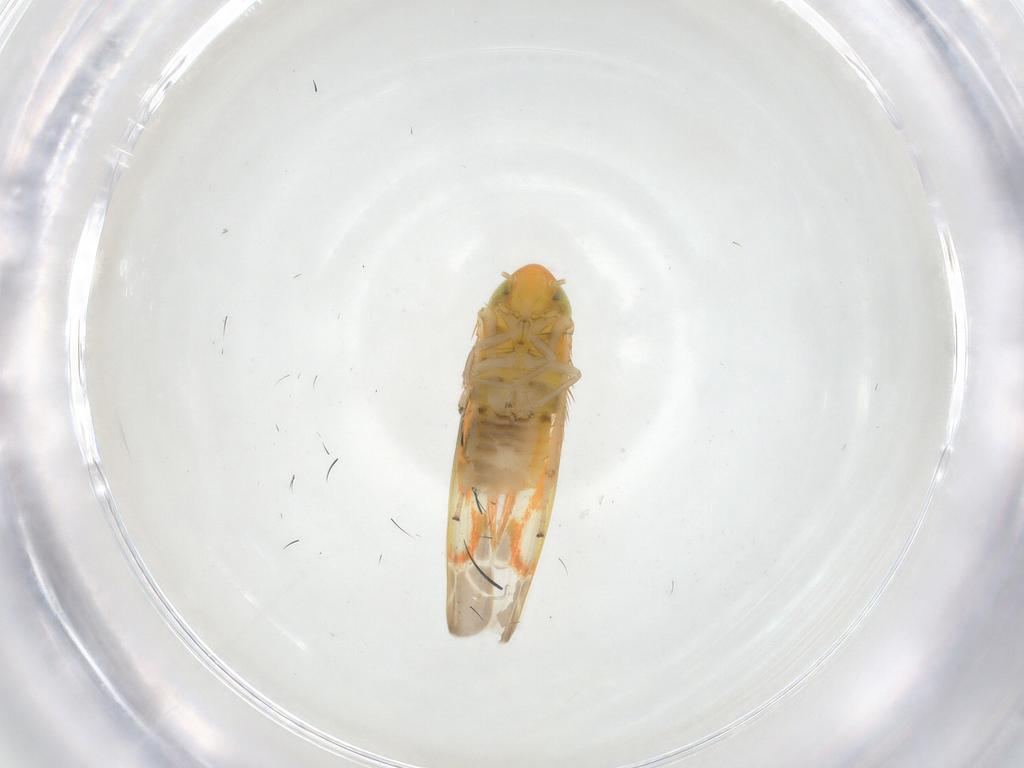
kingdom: Animalia
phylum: Arthropoda
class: Insecta
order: Hemiptera
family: Cicadellidae
